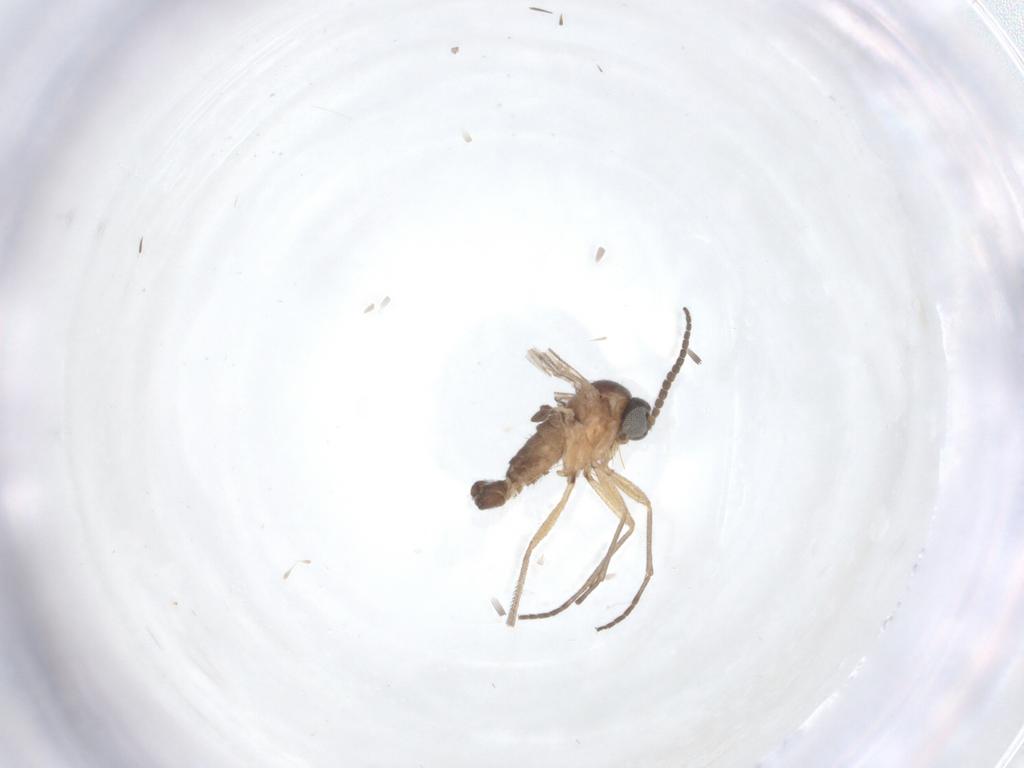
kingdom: Animalia
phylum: Arthropoda
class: Insecta
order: Diptera
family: Sciaridae
